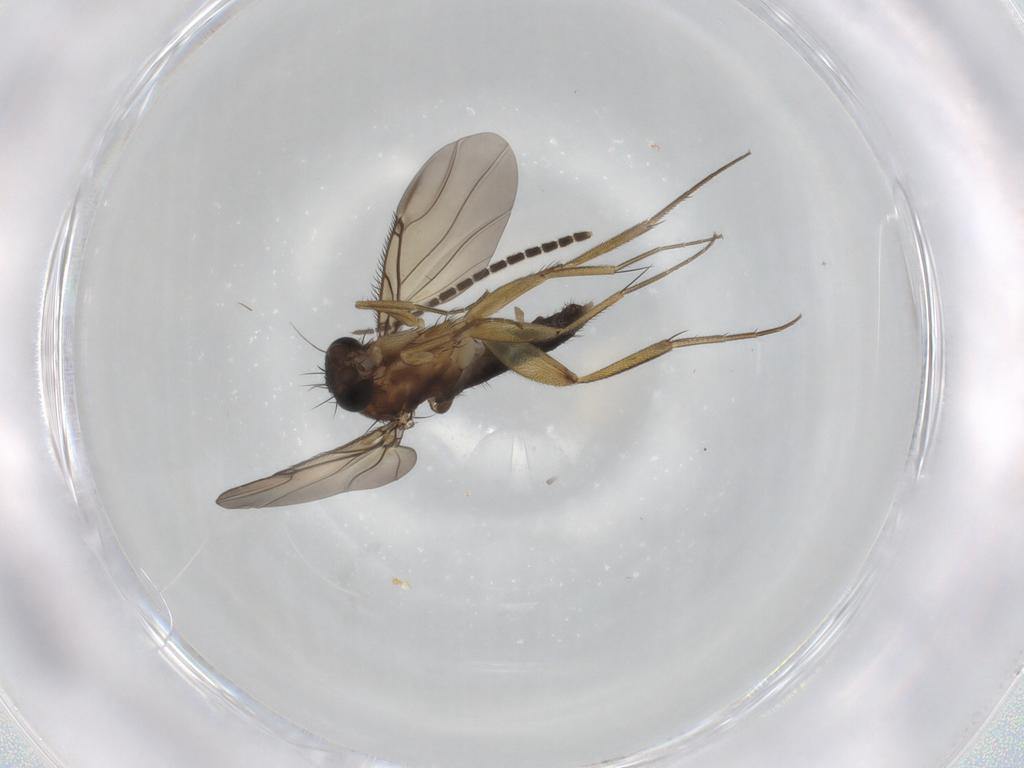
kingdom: Animalia
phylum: Arthropoda
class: Insecta
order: Diptera
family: Phoridae
